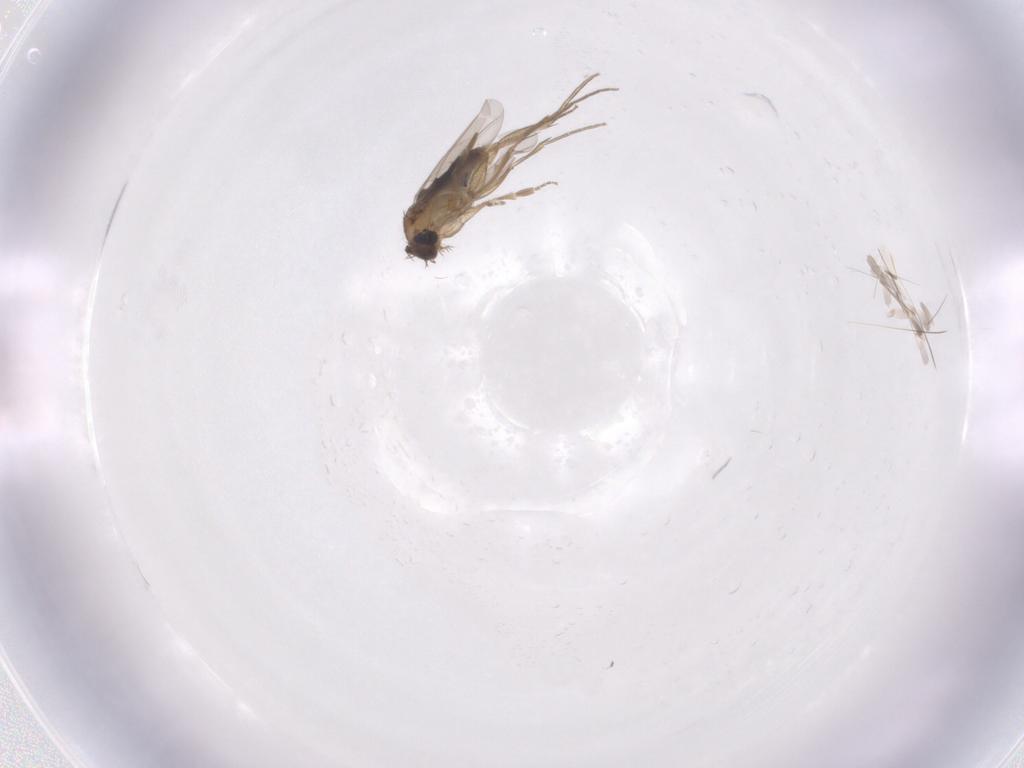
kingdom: Animalia
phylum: Arthropoda
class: Insecta
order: Diptera
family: Phoridae
